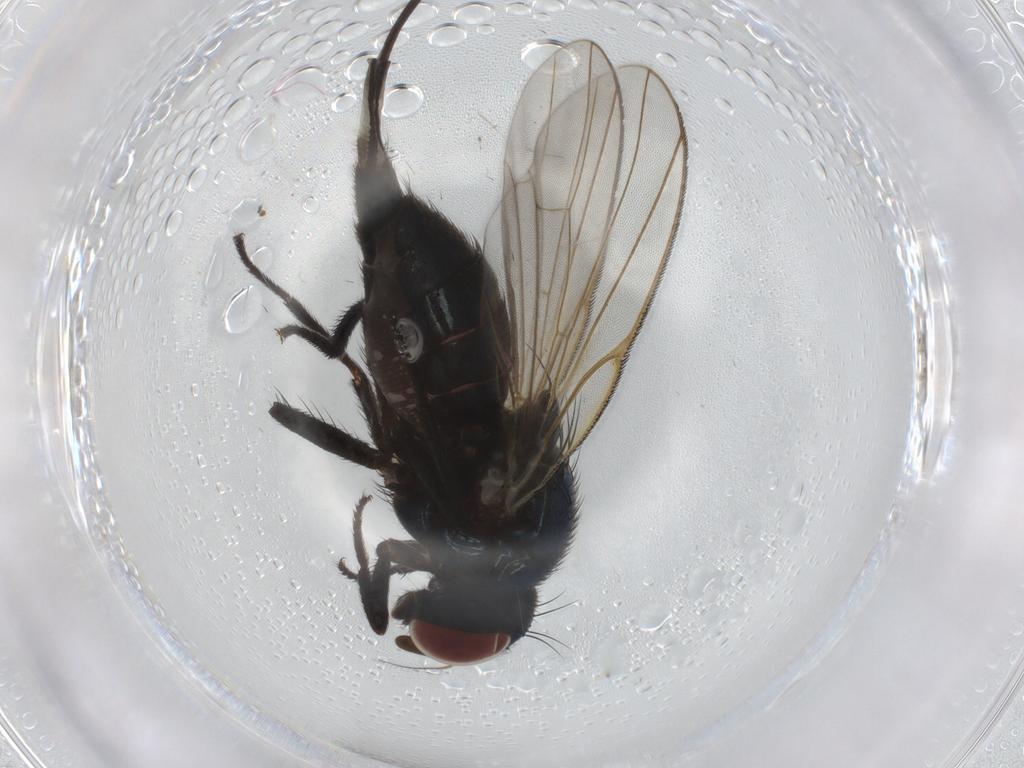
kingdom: Animalia
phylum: Arthropoda
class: Insecta
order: Diptera
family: Lonchaeidae
